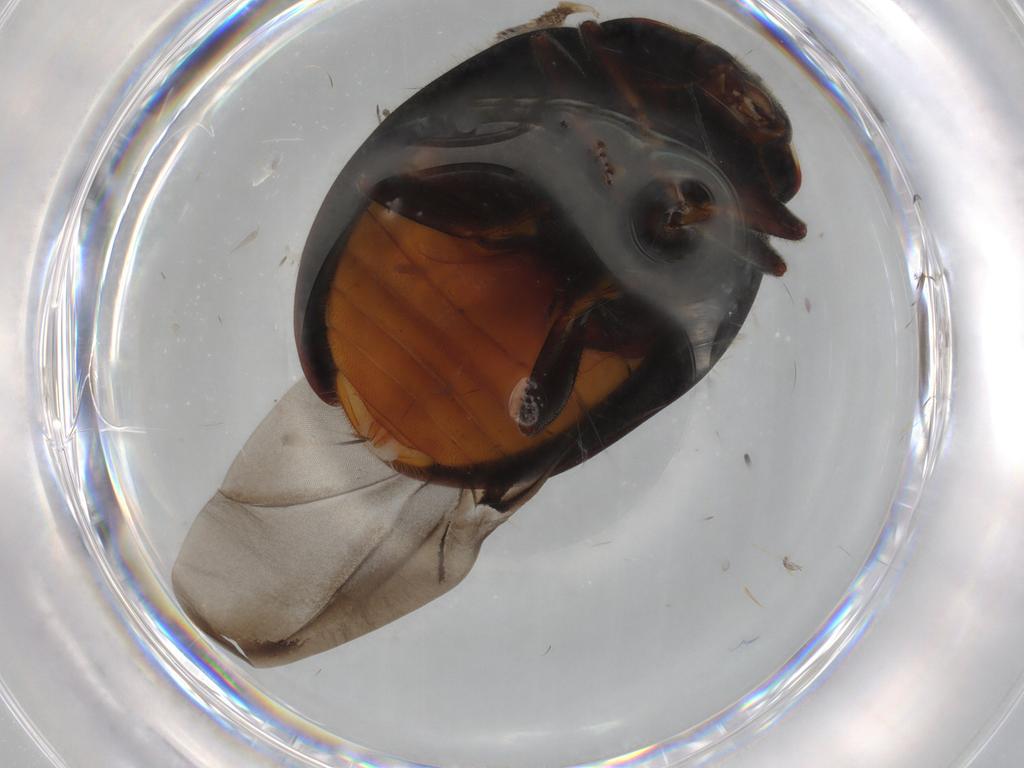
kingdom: Animalia
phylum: Arthropoda
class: Insecta
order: Coleoptera
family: Coccinellidae
